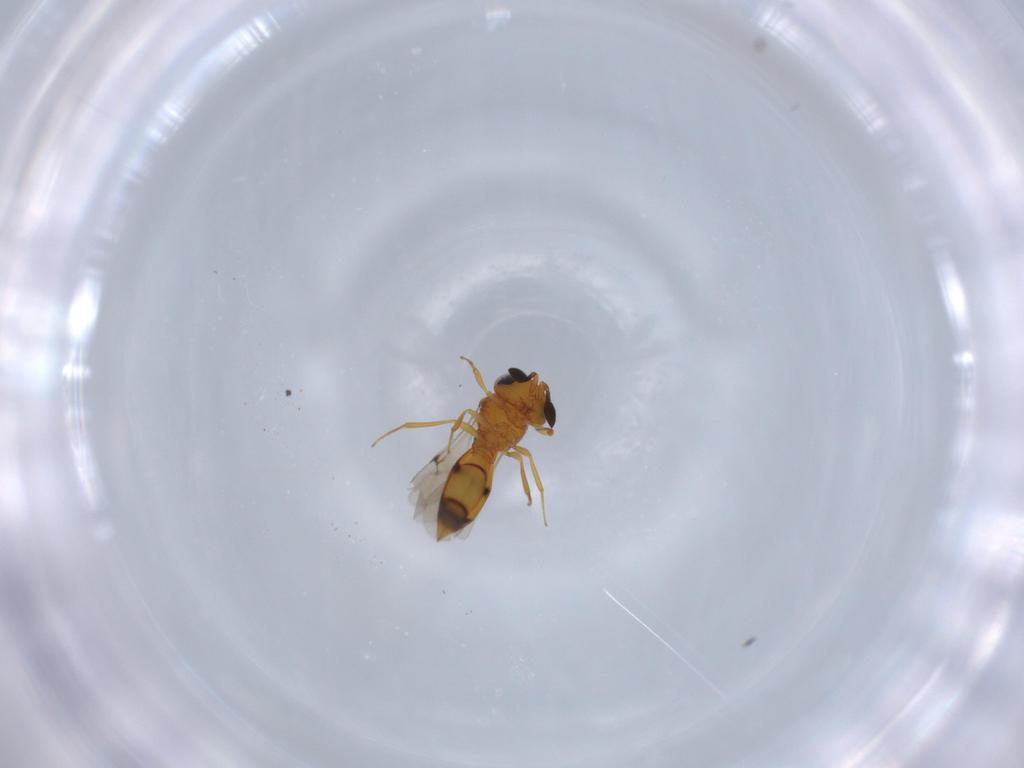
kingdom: Animalia
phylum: Arthropoda
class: Insecta
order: Hymenoptera
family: Scelionidae
